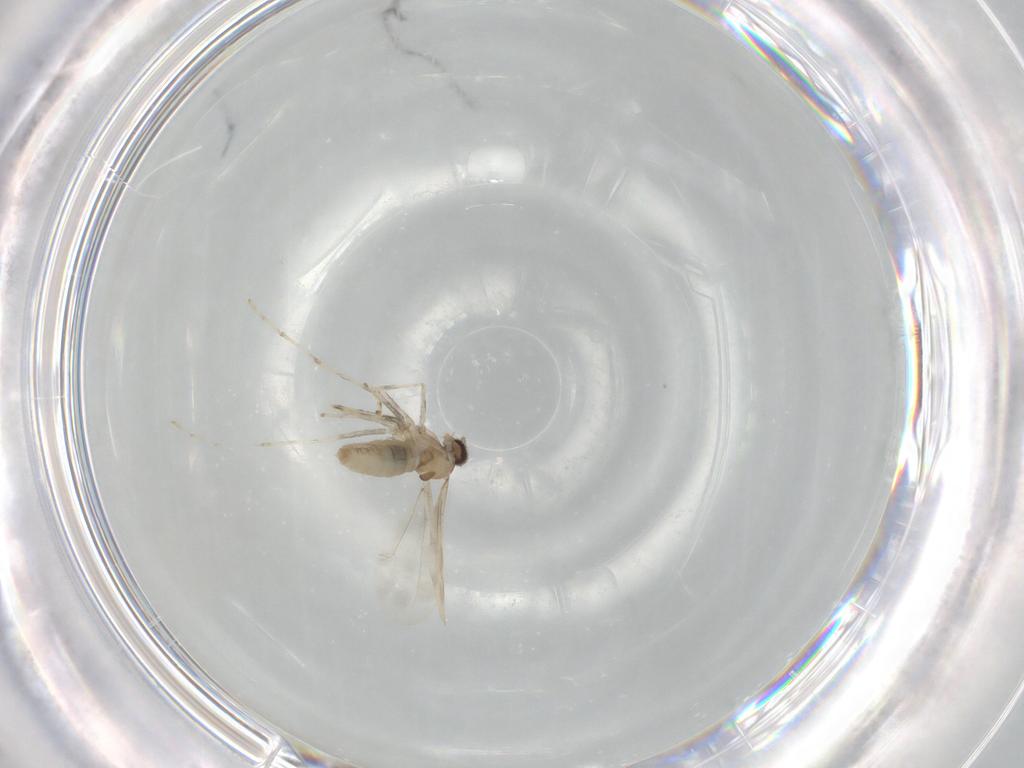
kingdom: Animalia
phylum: Arthropoda
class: Insecta
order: Diptera
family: Cecidomyiidae
